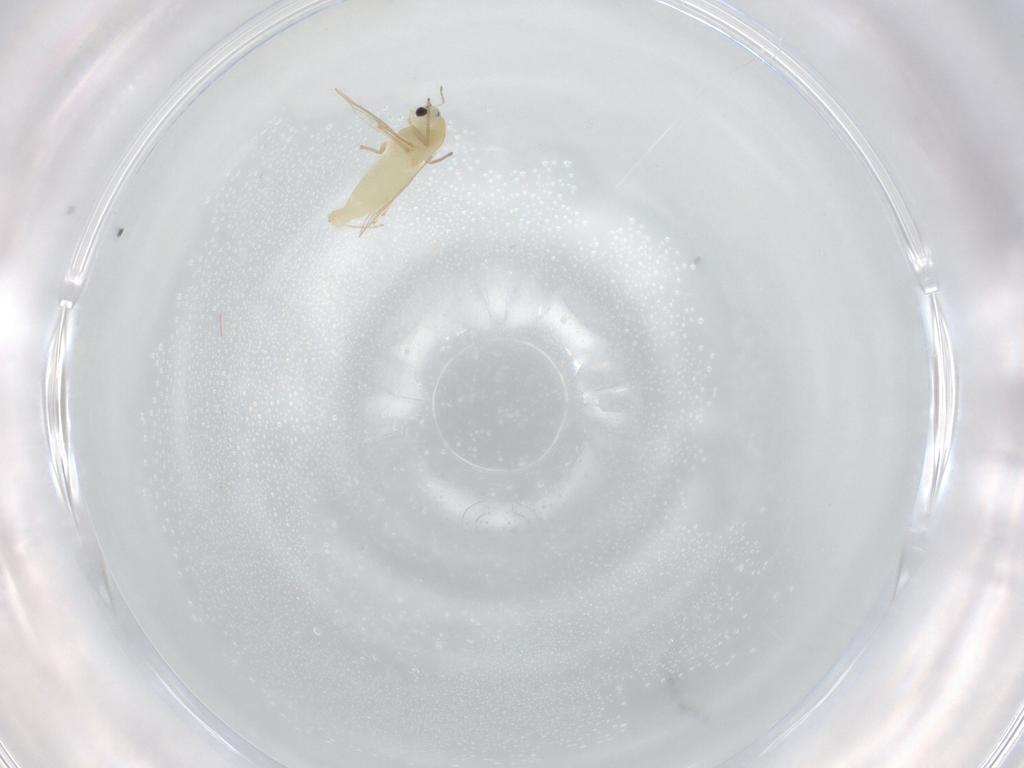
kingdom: Animalia
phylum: Arthropoda
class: Insecta
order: Diptera
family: Chironomidae
